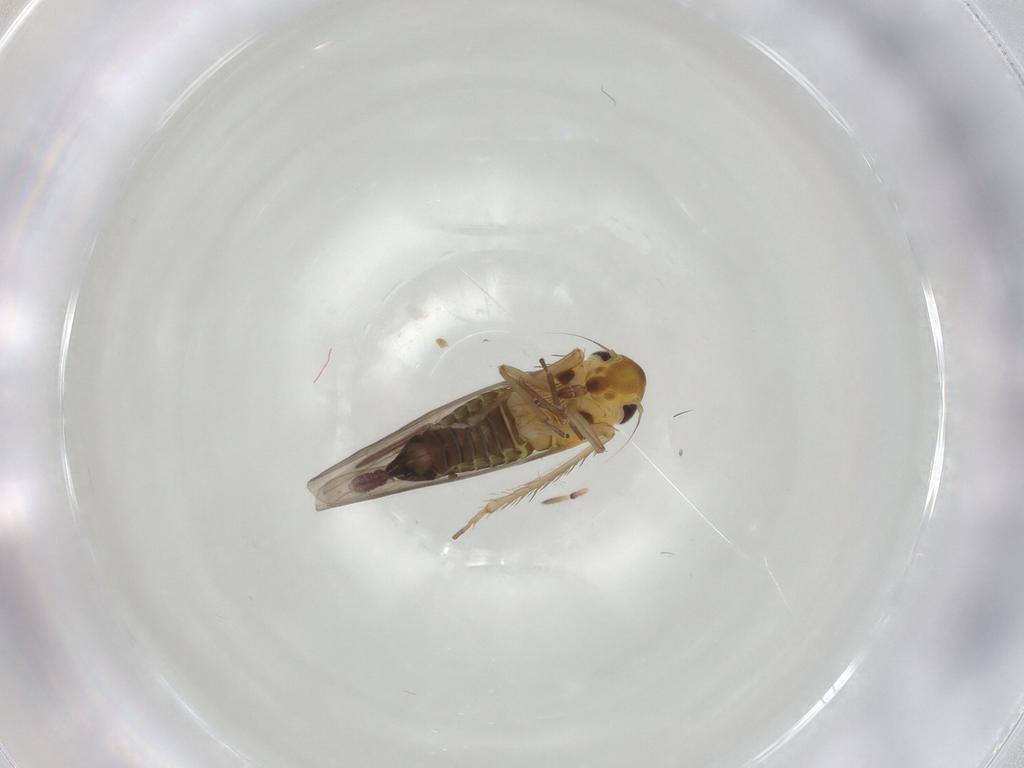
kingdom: Animalia
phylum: Arthropoda
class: Insecta
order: Hemiptera
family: Cicadellidae
